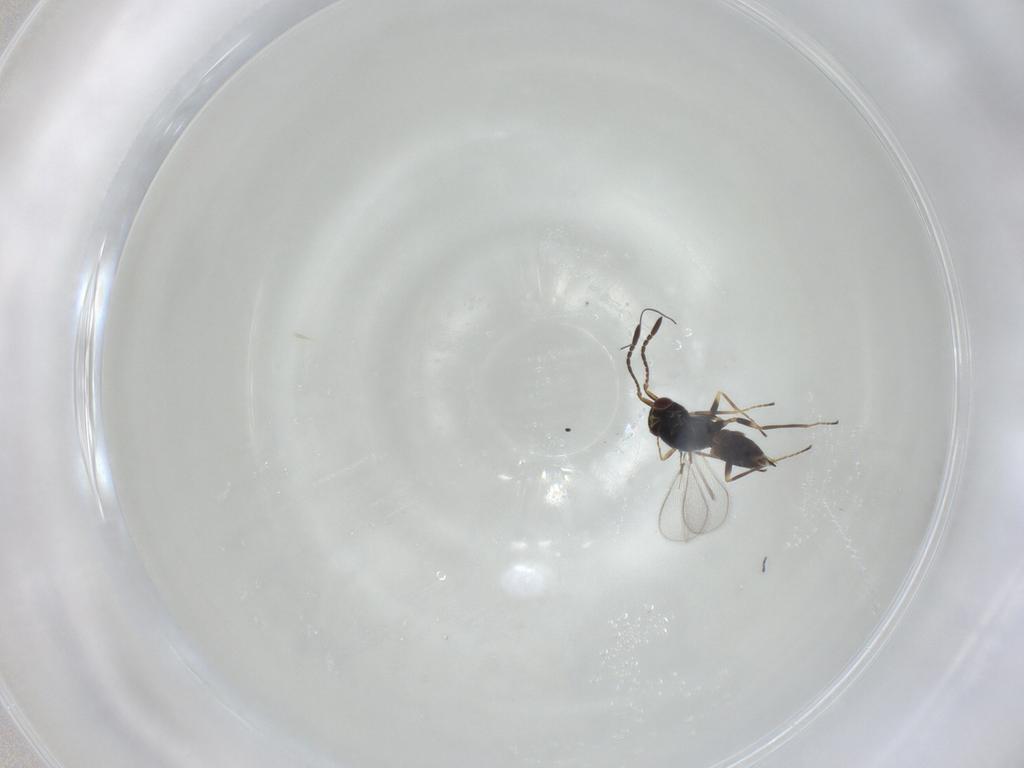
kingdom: Animalia
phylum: Arthropoda
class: Insecta
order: Hymenoptera
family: Mymaridae
